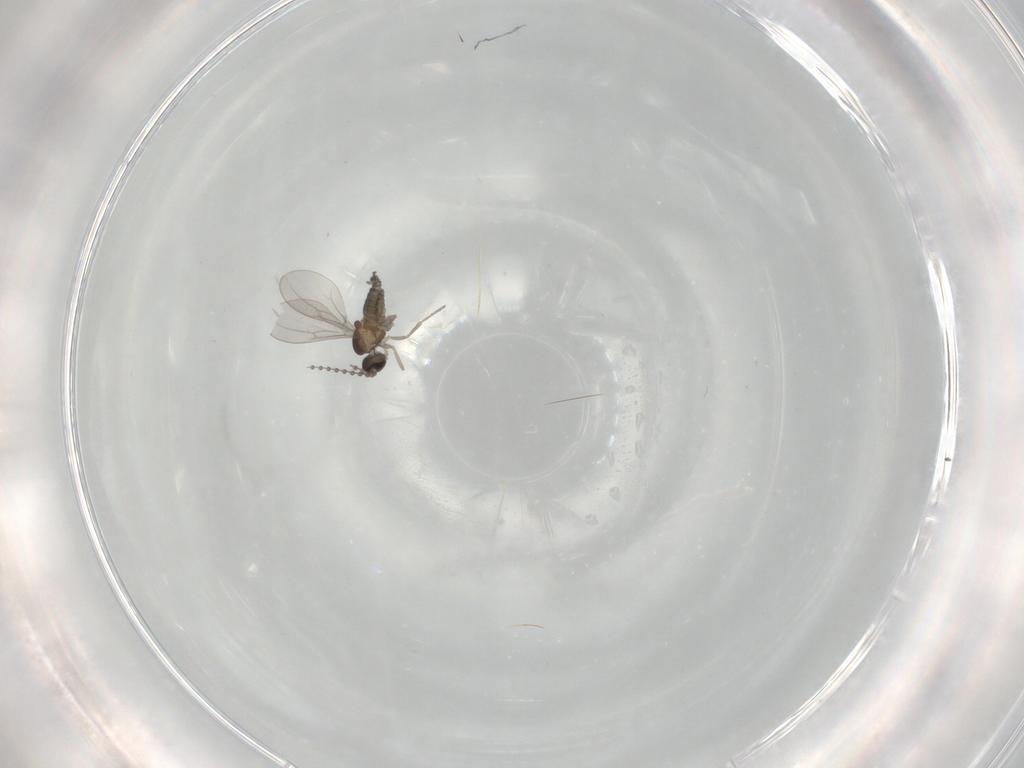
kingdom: Animalia
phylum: Arthropoda
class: Insecta
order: Diptera
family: Cecidomyiidae
